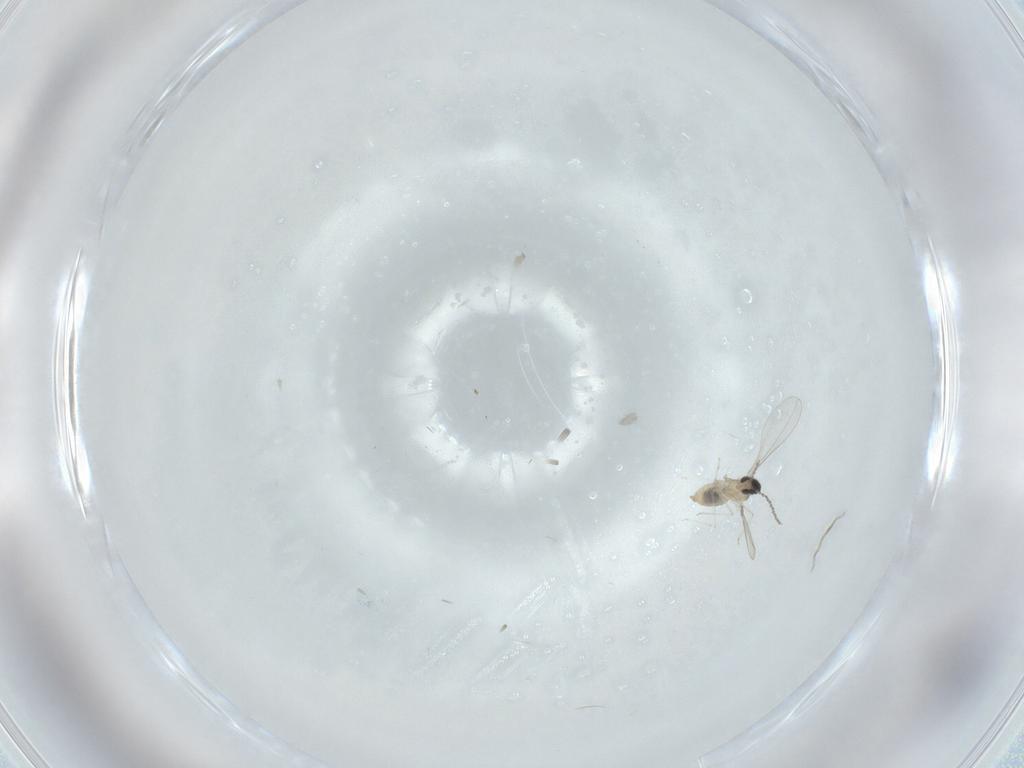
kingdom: Animalia
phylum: Arthropoda
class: Insecta
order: Diptera
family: Cecidomyiidae
